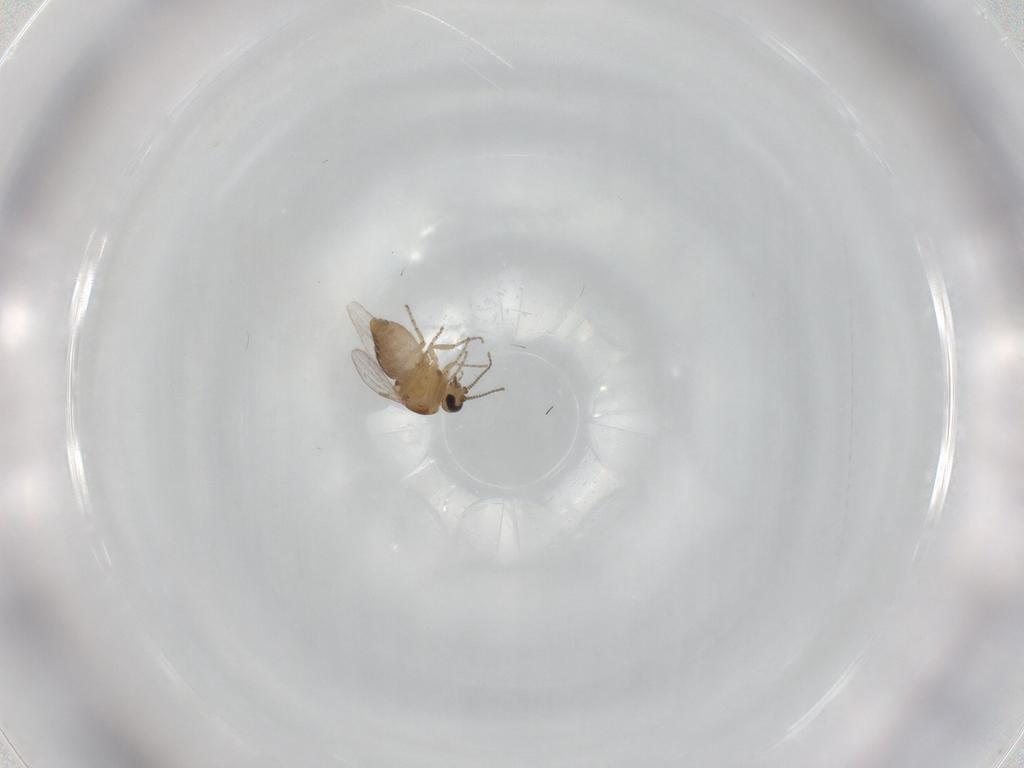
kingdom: Animalia
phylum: Arthropoda
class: Insecta
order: Diptera
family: Ceratopogonidae
